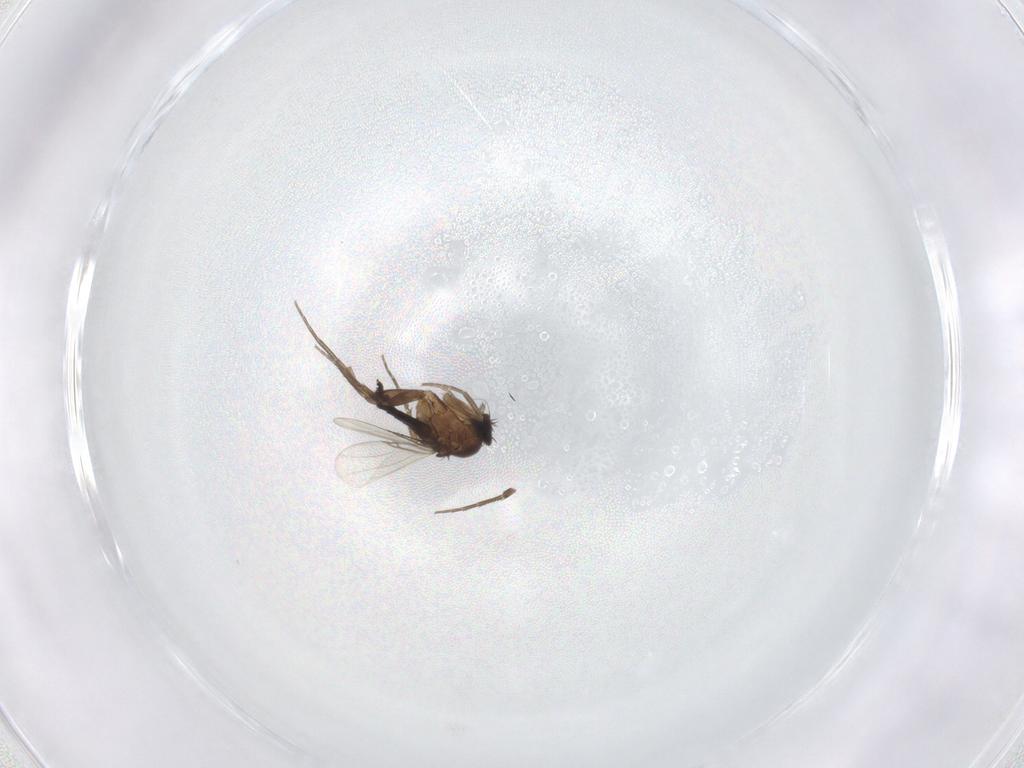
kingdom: Animalia
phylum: Arthropoda
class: Insecta
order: Diptera
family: Phoridae
